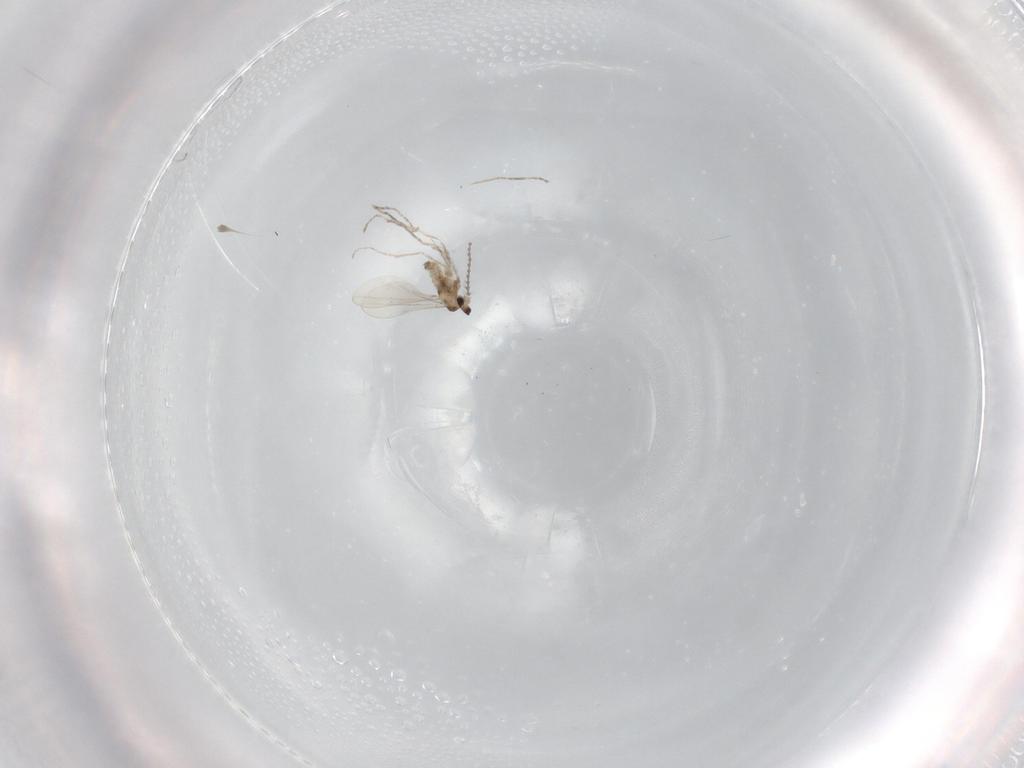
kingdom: Animalia
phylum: Arthropoda
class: Insecta
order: Diptera
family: Cecidomyiidae
